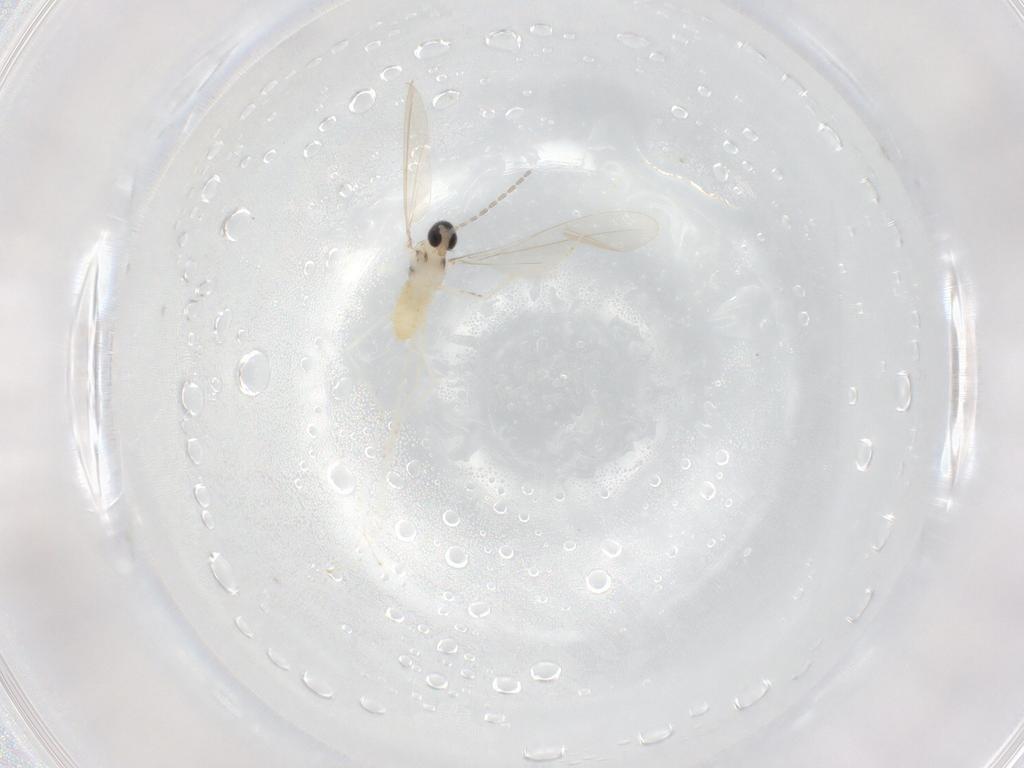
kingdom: Animalia
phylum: Arthropoda
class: Insecta
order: Diptera
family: Cecidomyiidae
